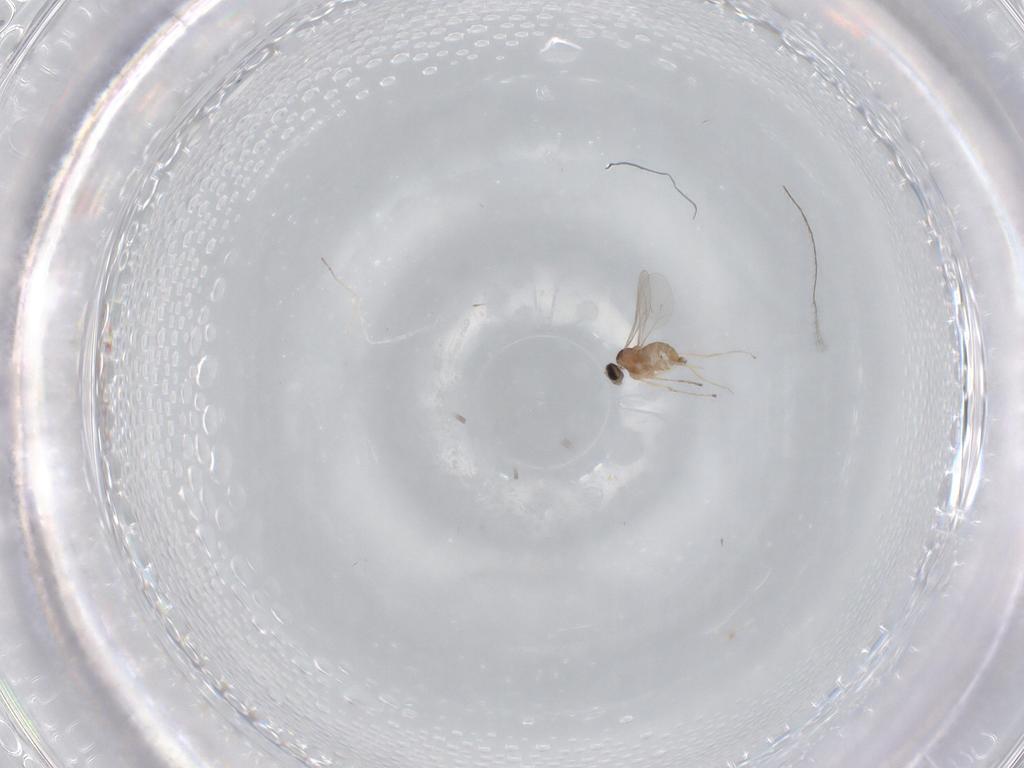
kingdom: Animalia
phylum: Arthropoda
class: Insecta
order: Diptera
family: Cecidomyiidae
